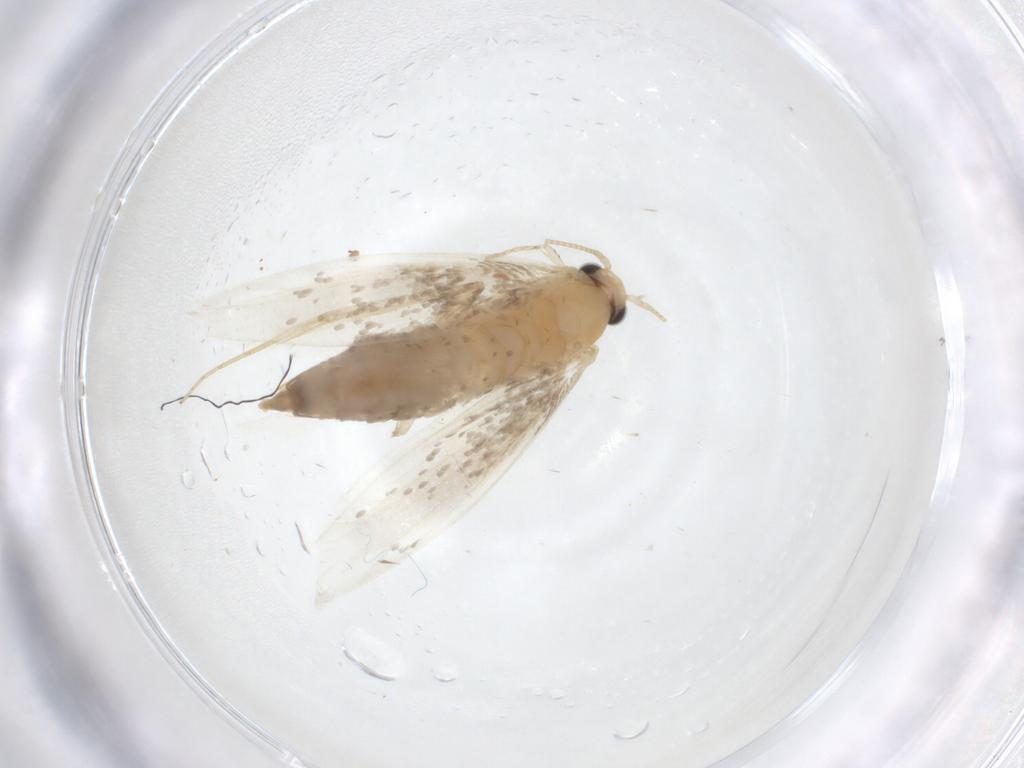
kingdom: Animalia
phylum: Arthropoda
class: Insecta
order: Lepidoptera
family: Tineidae
